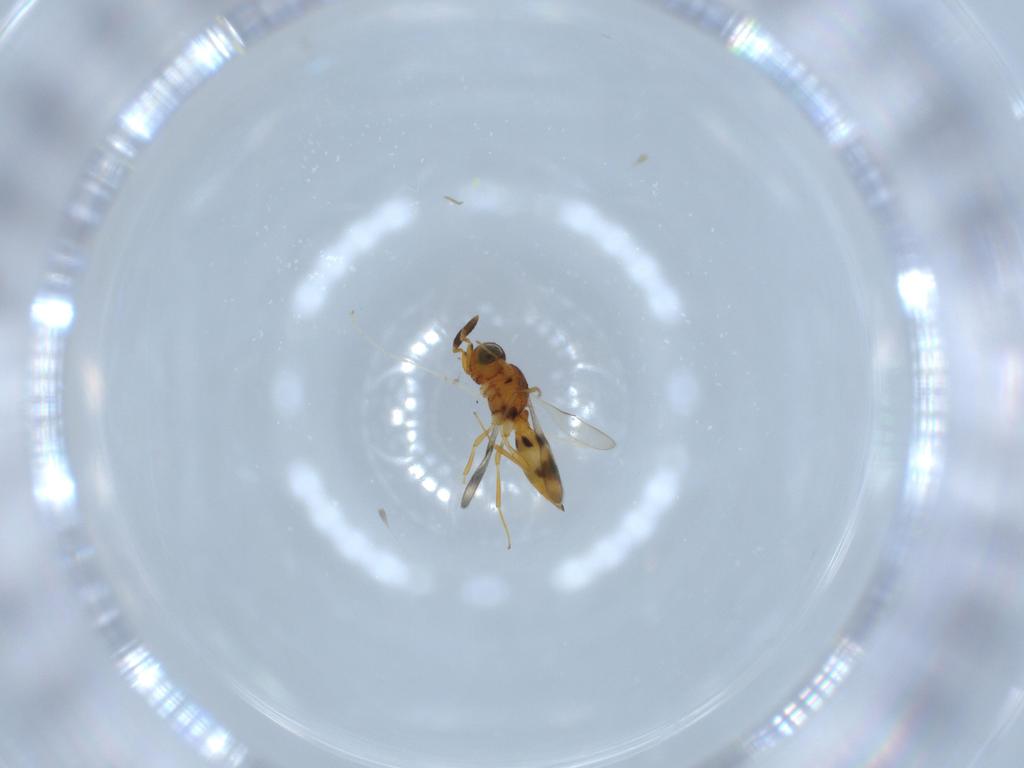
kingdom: Animalia
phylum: Arthropoda
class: Insecta
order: Hymenoptera
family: Scelionidae
